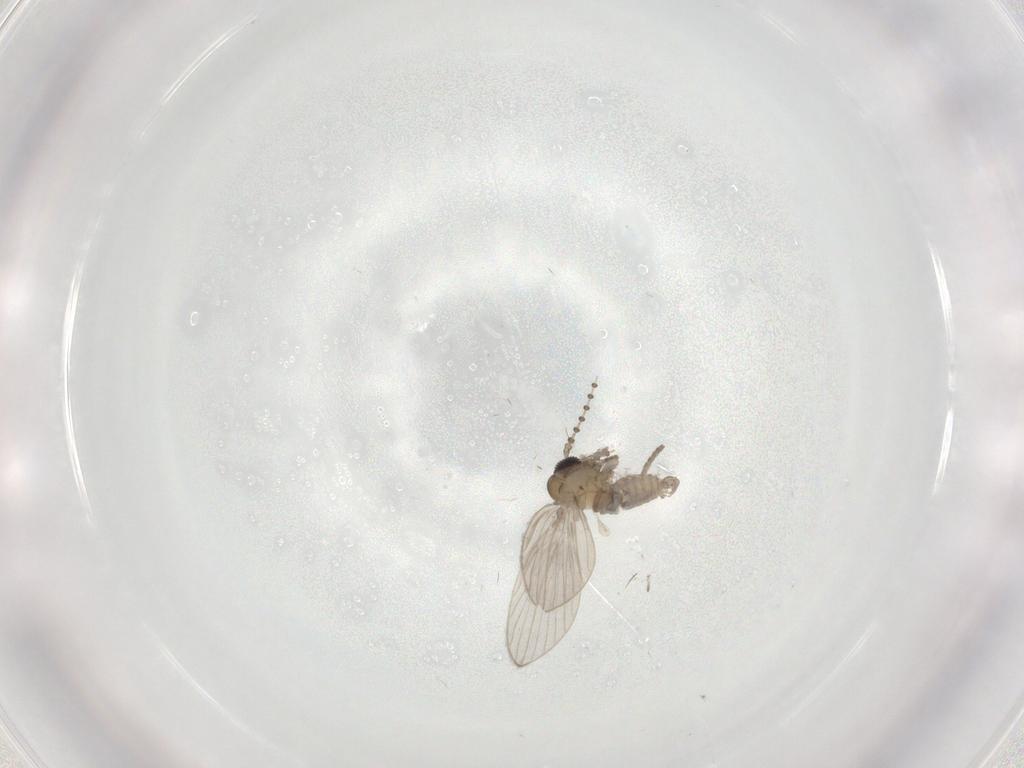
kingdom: Animalia
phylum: Arthropoda
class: Insecta
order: Diptera
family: Psychodidae
